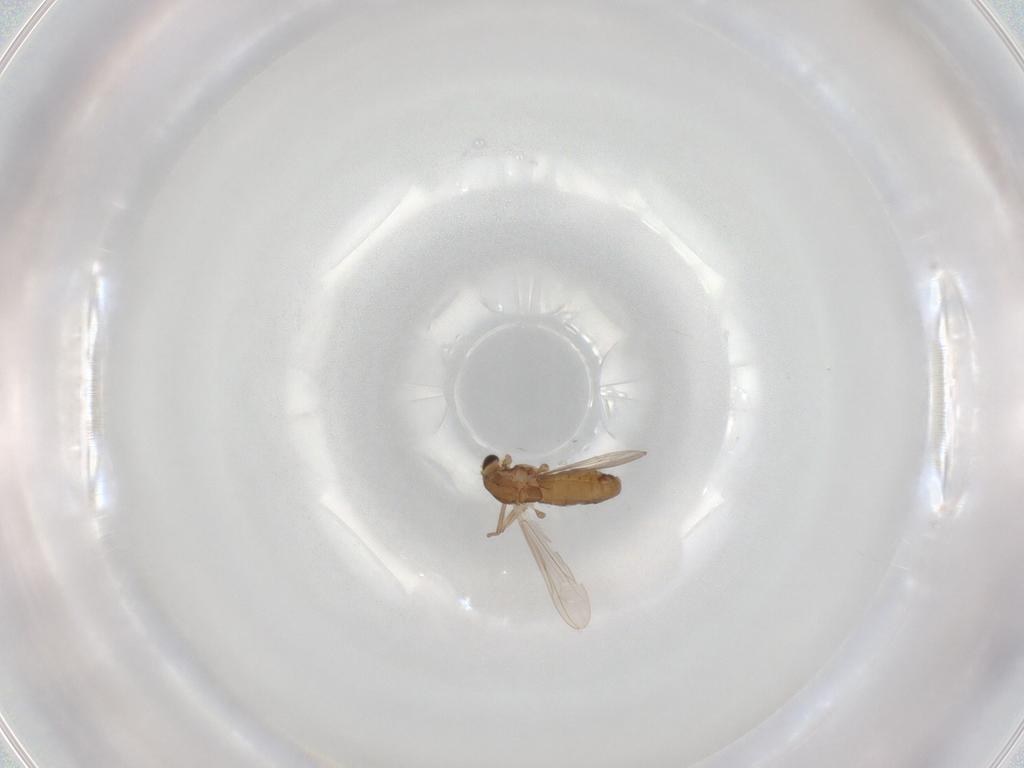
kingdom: Animalia
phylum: Arthropoda
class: Insecta
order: Diptera
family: Chironomidae
